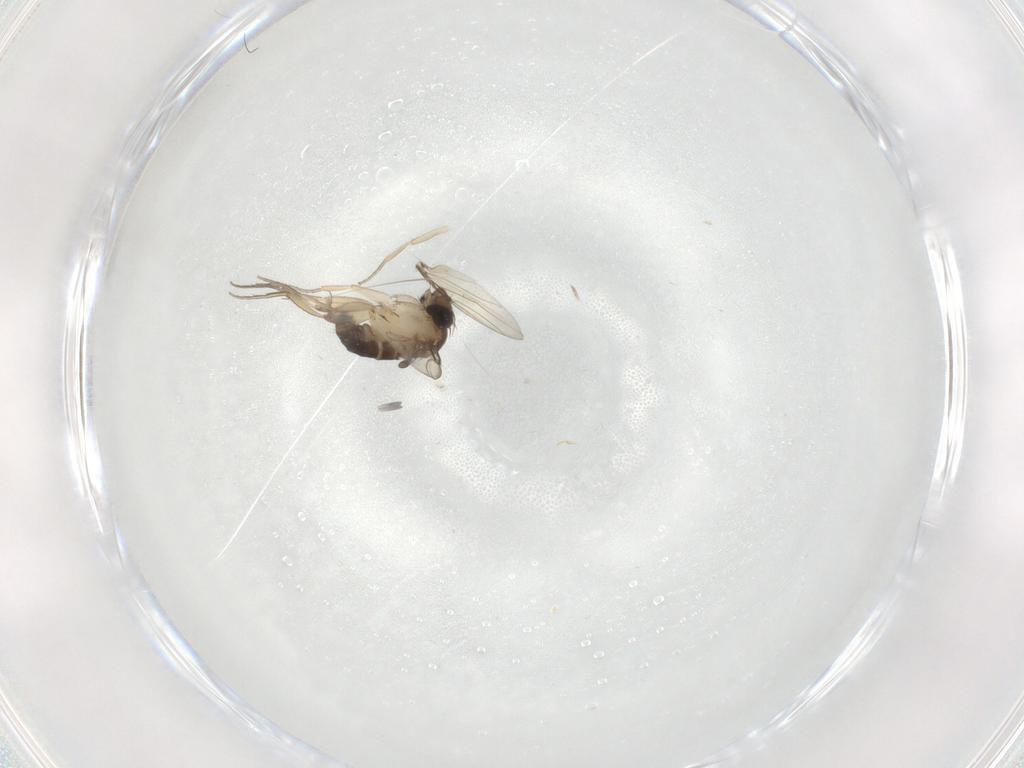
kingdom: Animalia
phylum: Arthropoda
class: Insecta
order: Diptera
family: Phoridae
